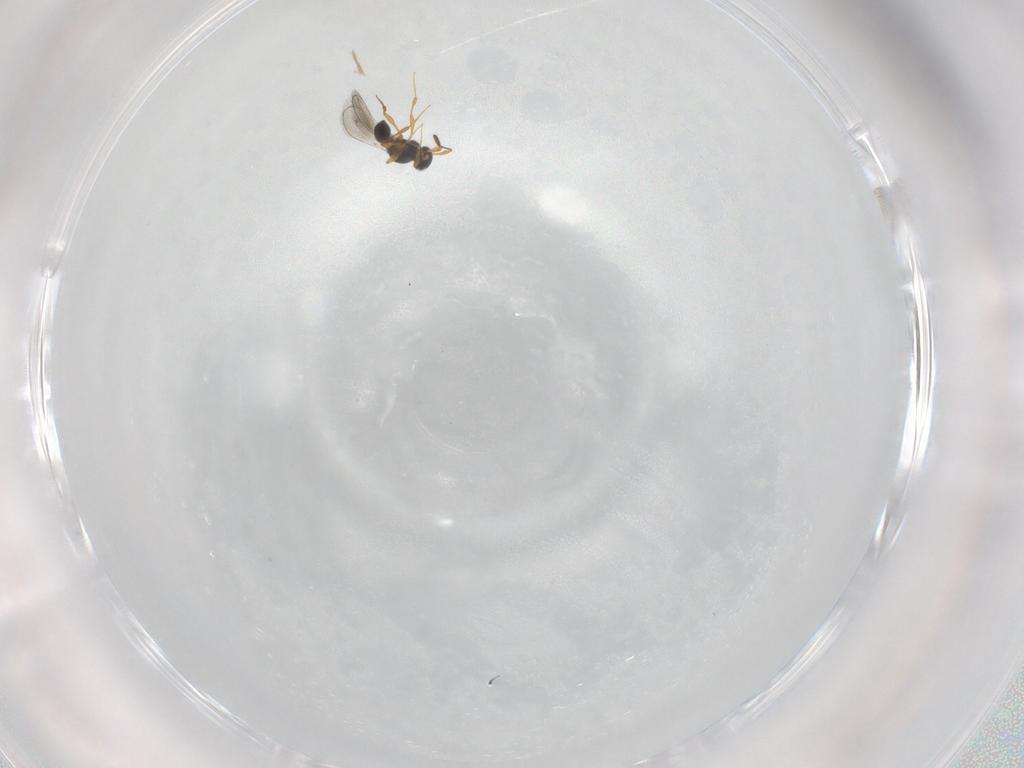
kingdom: Animalia
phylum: Arthropoda
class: Insecta
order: Hymenoptera
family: Platygastridae
